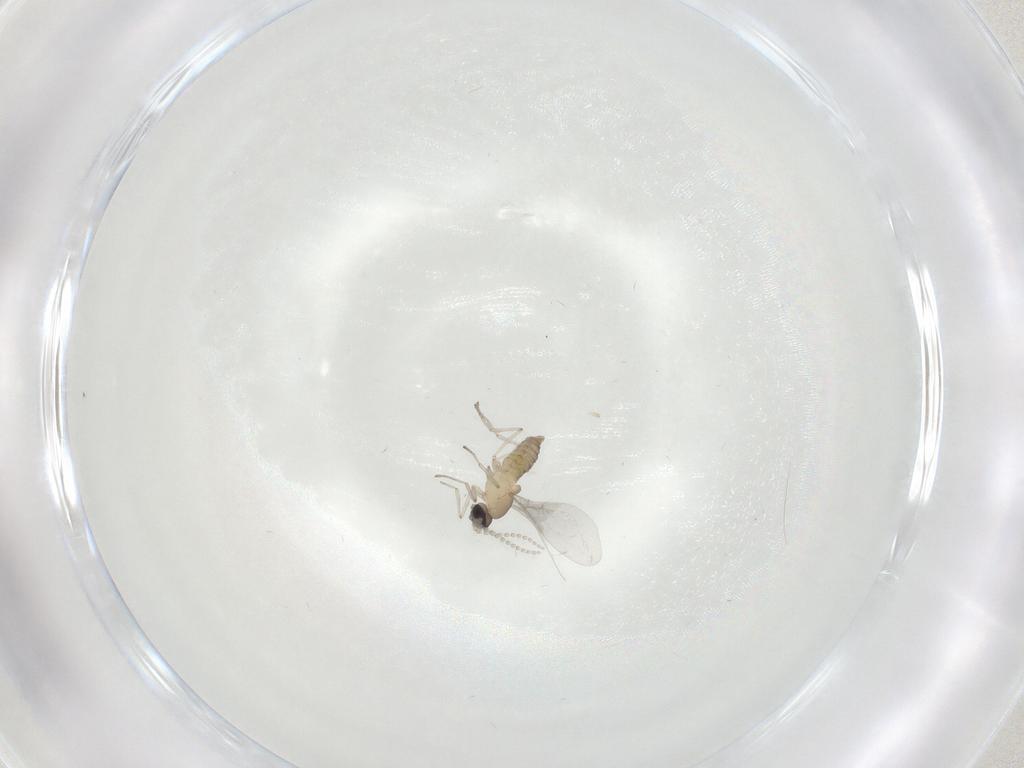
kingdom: Animalia
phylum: Arthropoda
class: Insecta
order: Diptera
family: Cecidomyiidae
